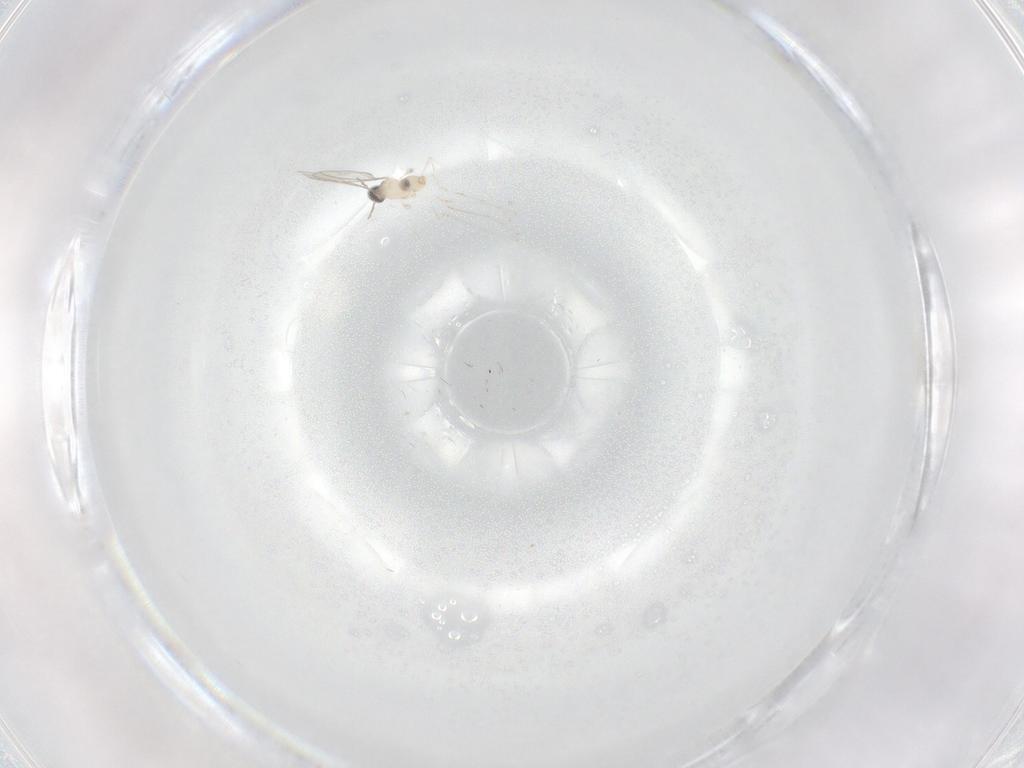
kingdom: Animalia
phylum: Arthropoda
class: Insecta
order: Diptera
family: Cecidomyiidae
